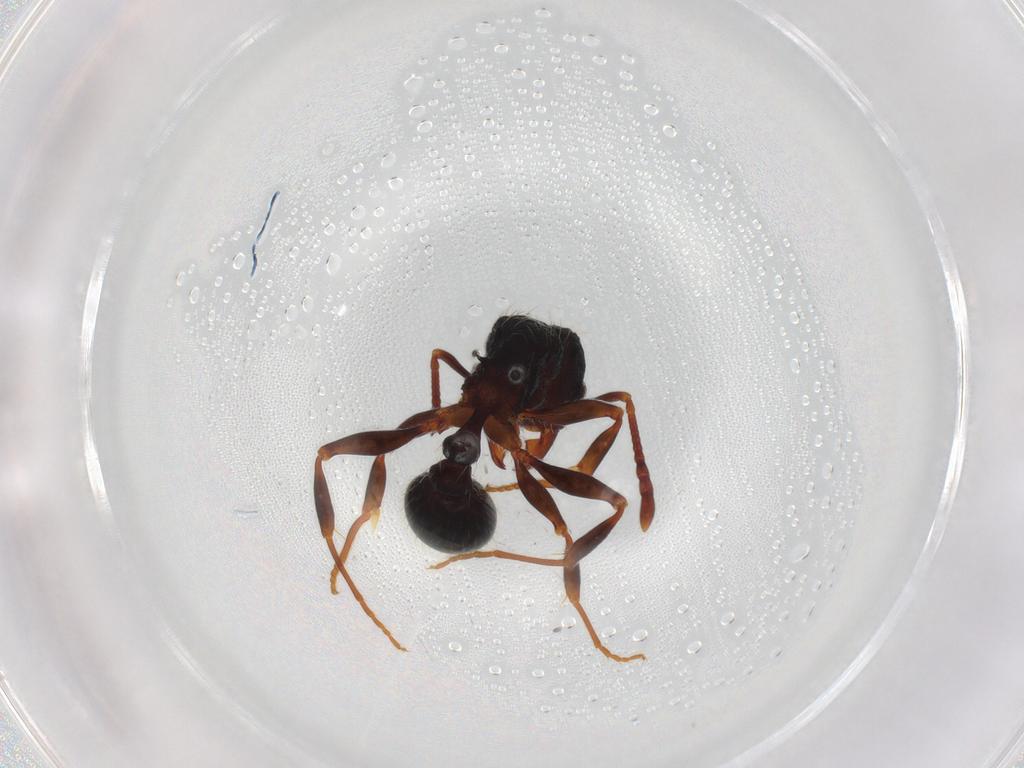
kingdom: Animalia
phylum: Arthropoda
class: Insecta
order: Hymenoptera
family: Formicidae
